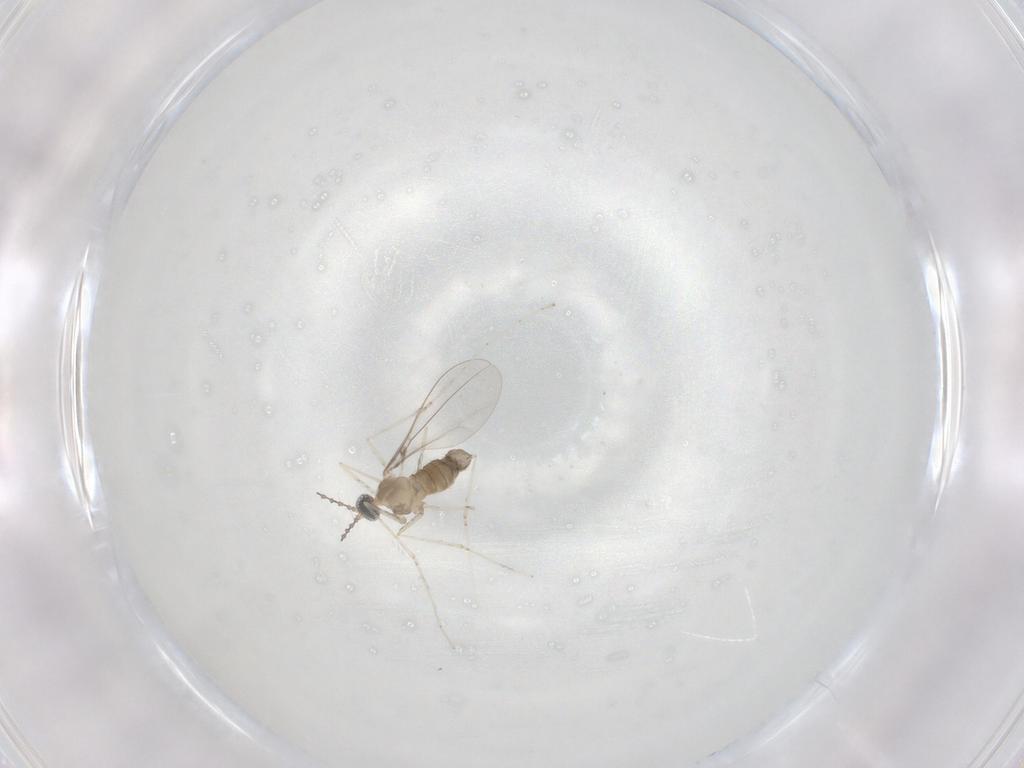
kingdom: Animalia
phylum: Arthropoda
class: Insecta
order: Diptera
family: Cecidomyiidae
